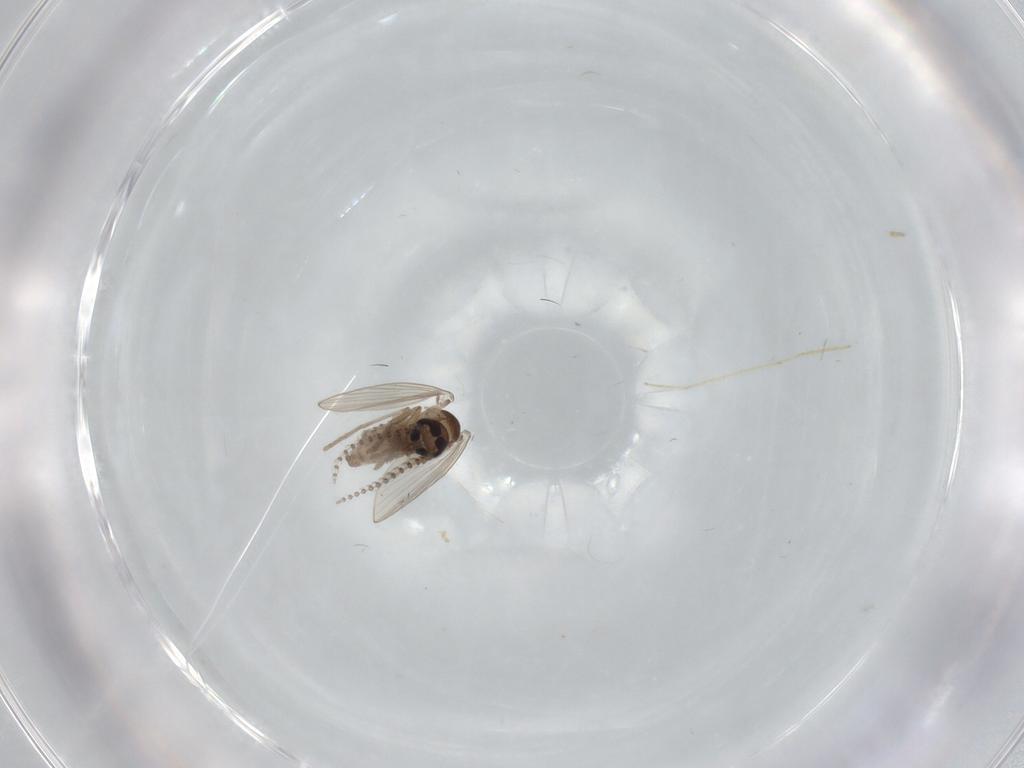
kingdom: Animalia
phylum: Arthropoda
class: Insecta
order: Diptera
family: Psychodidae
